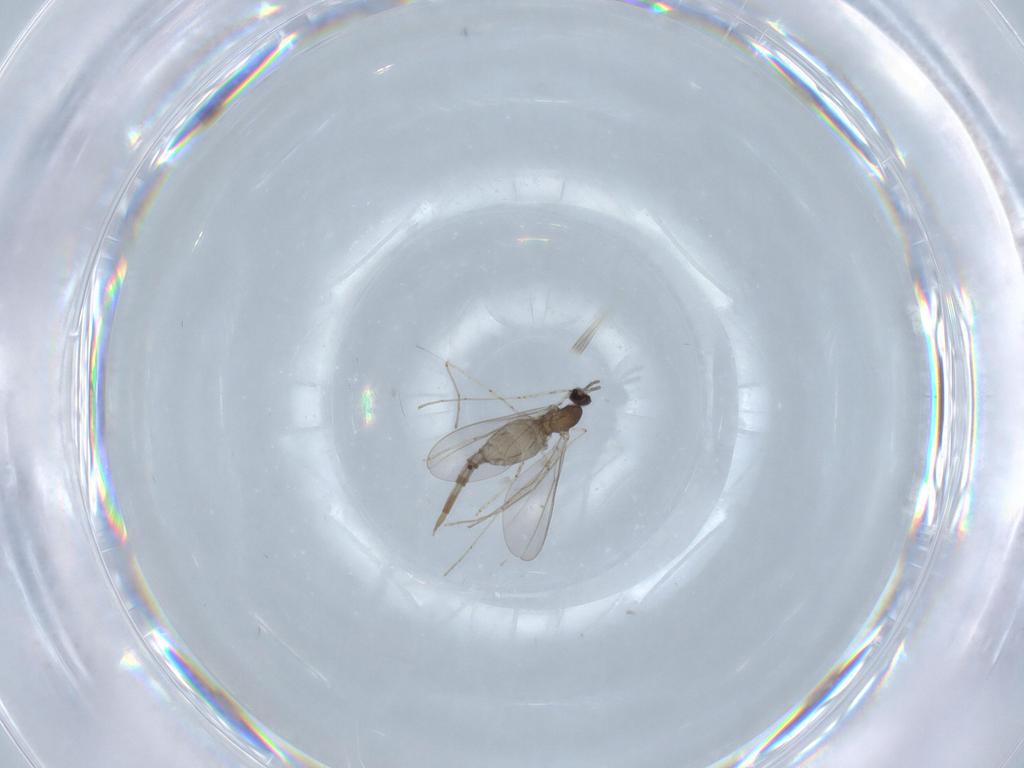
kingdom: Animalia
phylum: Arthropoda
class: Insecta
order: Diptera
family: Cecidomyiidae
